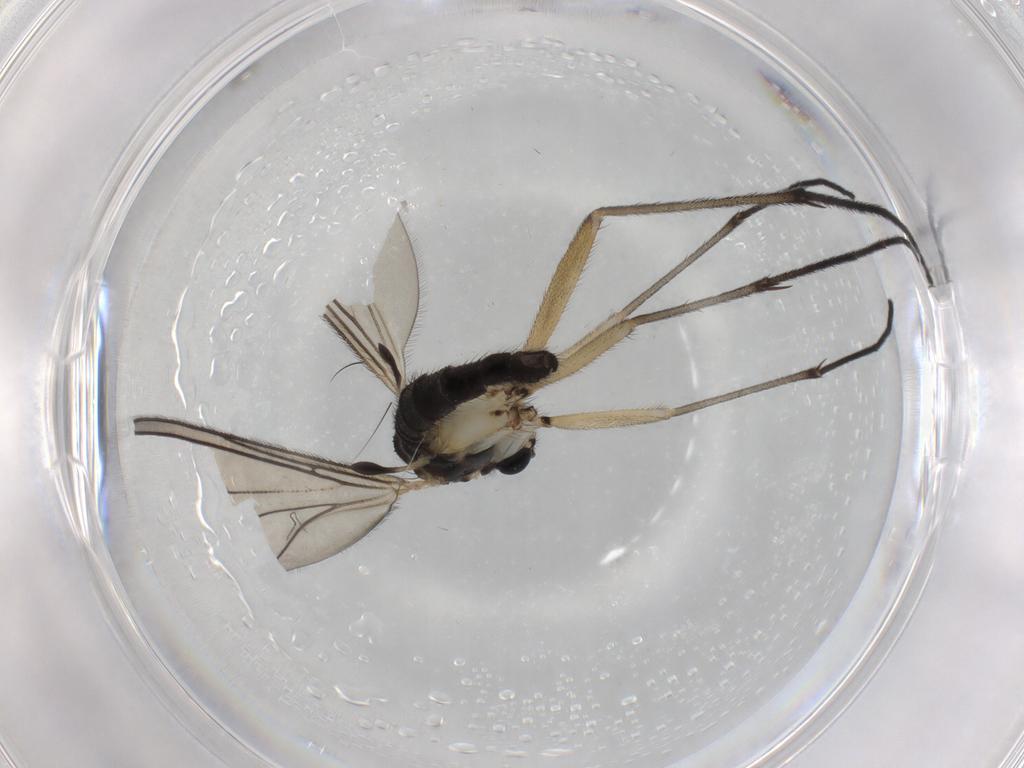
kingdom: Animalia
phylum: Arthropoda
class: Insecta
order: Diptera
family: Sciaridae
